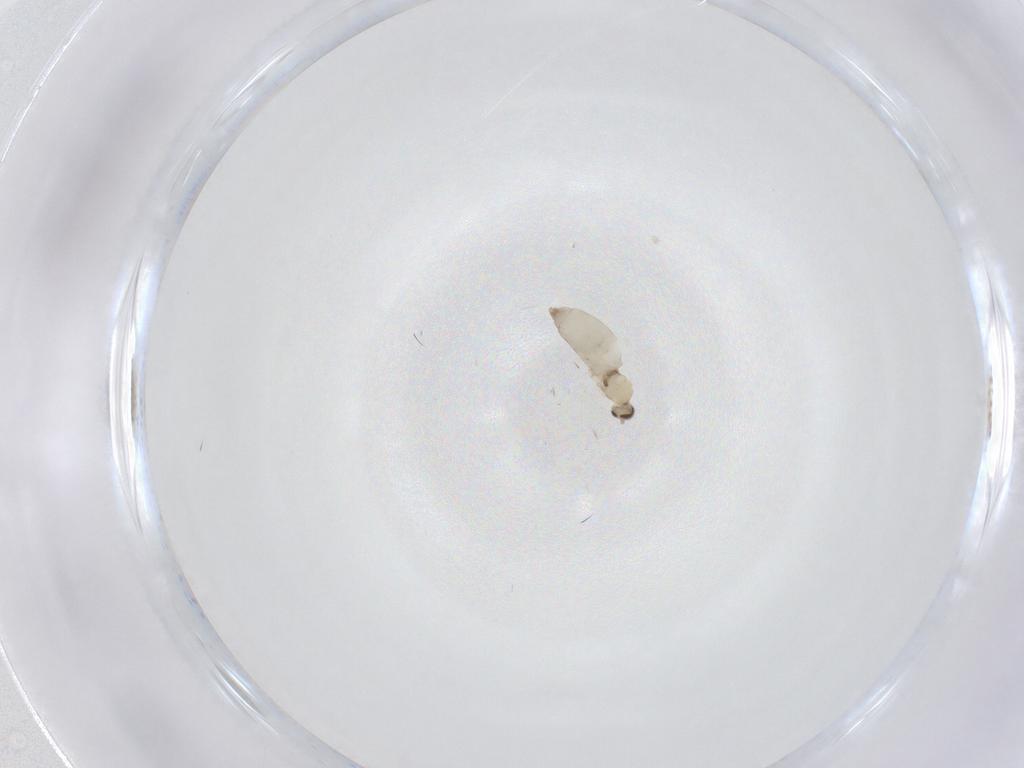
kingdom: Animalia
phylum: Arthropoda
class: Insecta
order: Diptera
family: Cecidomyiidae
